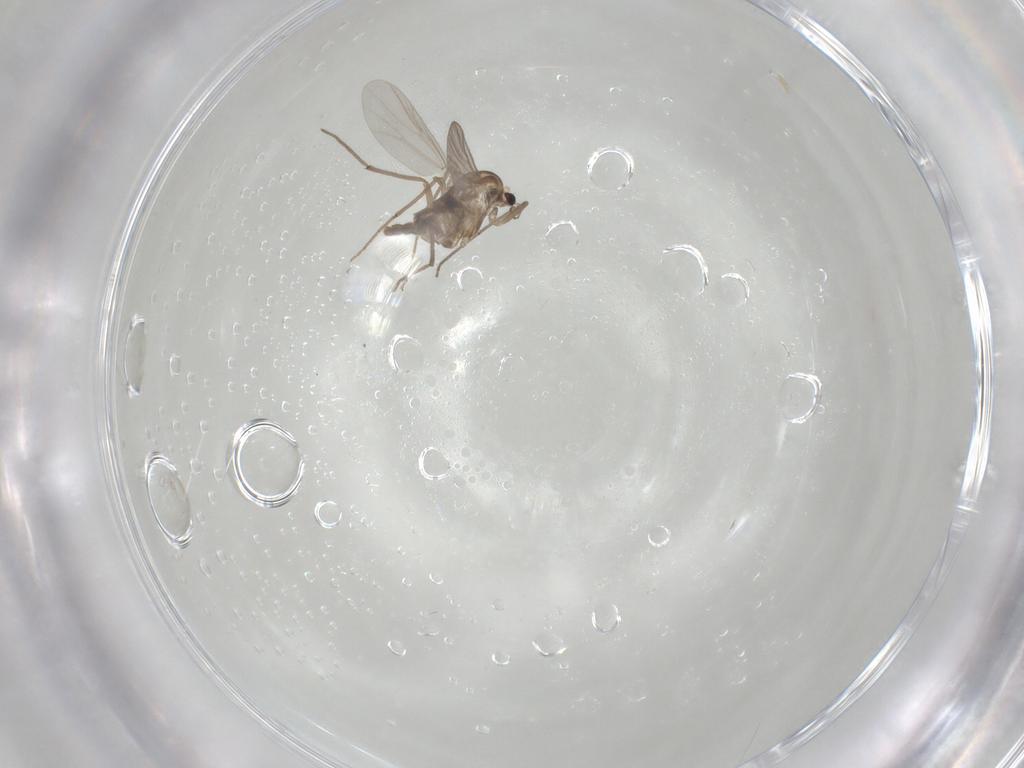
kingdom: Animalia
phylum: Arthropoda
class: Insecta
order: Diptera
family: Chironomidae
